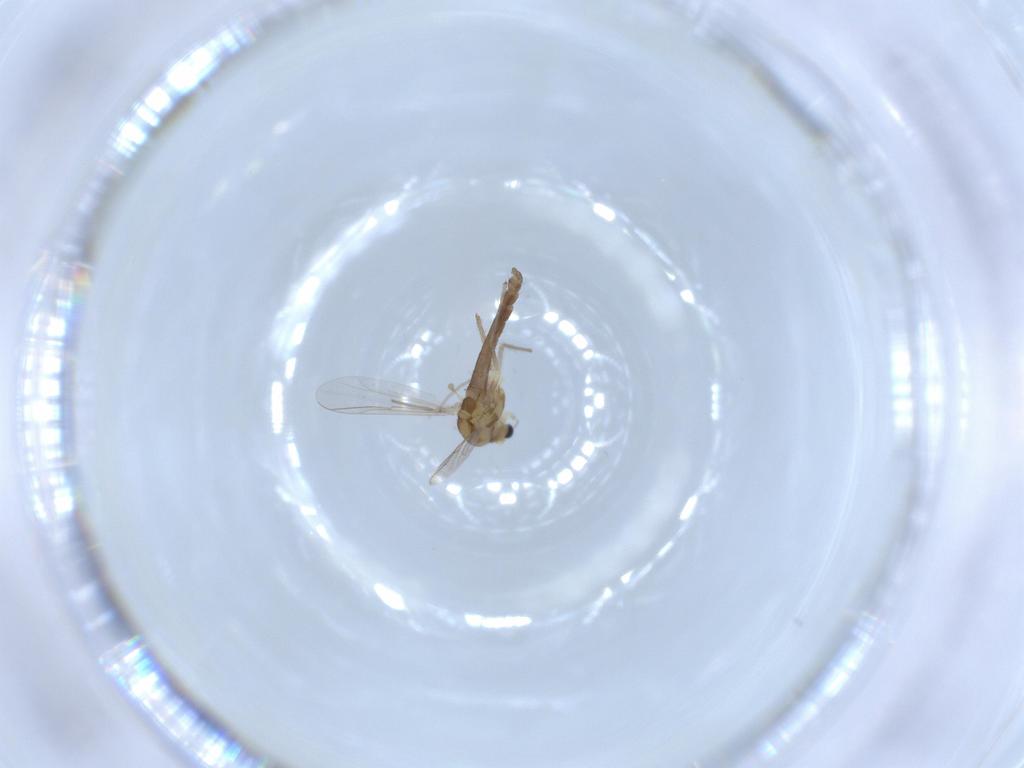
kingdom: Animalia
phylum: Arthropoda
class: Insecta
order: Diptera
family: Chironomidae
